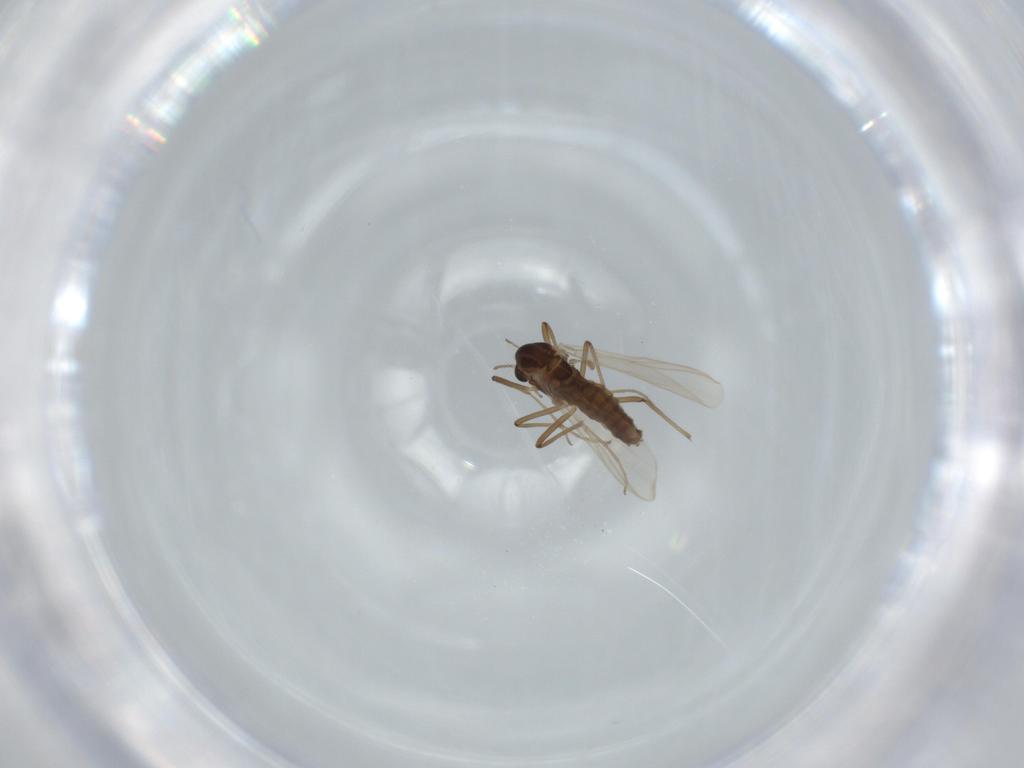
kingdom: Animalia
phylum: Arthropoda
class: Insecta
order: Diptera
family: Chironomidae
